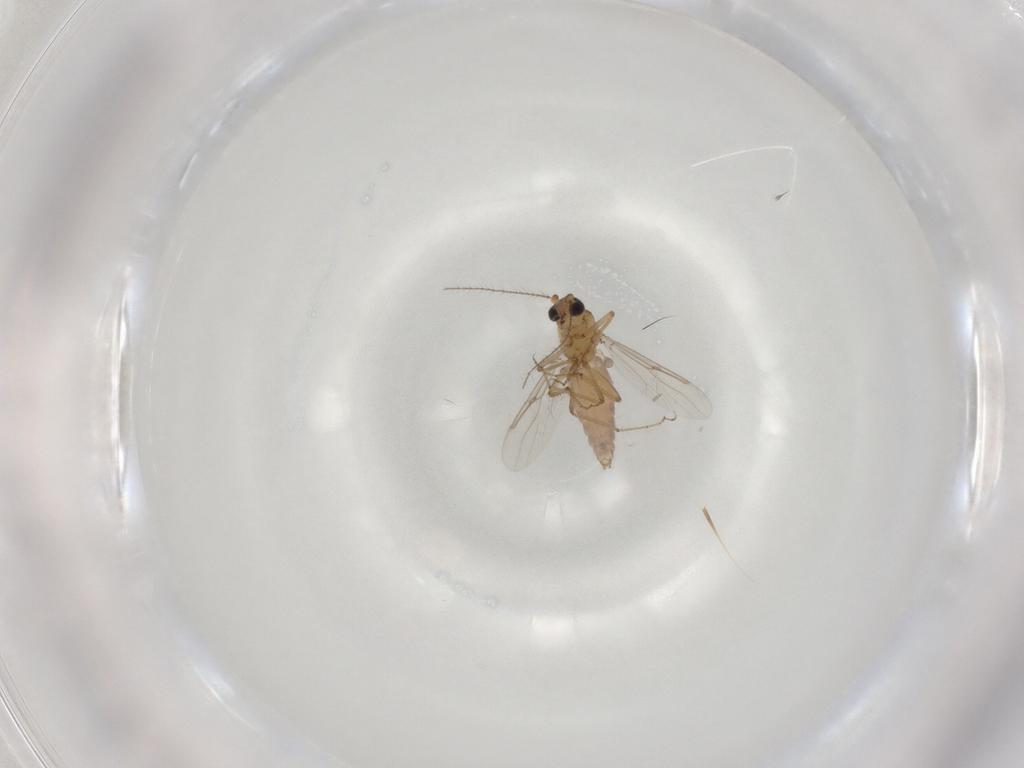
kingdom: Animalia
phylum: Arthropoda
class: Insecta
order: Diptera
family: Ceratopogonidae
